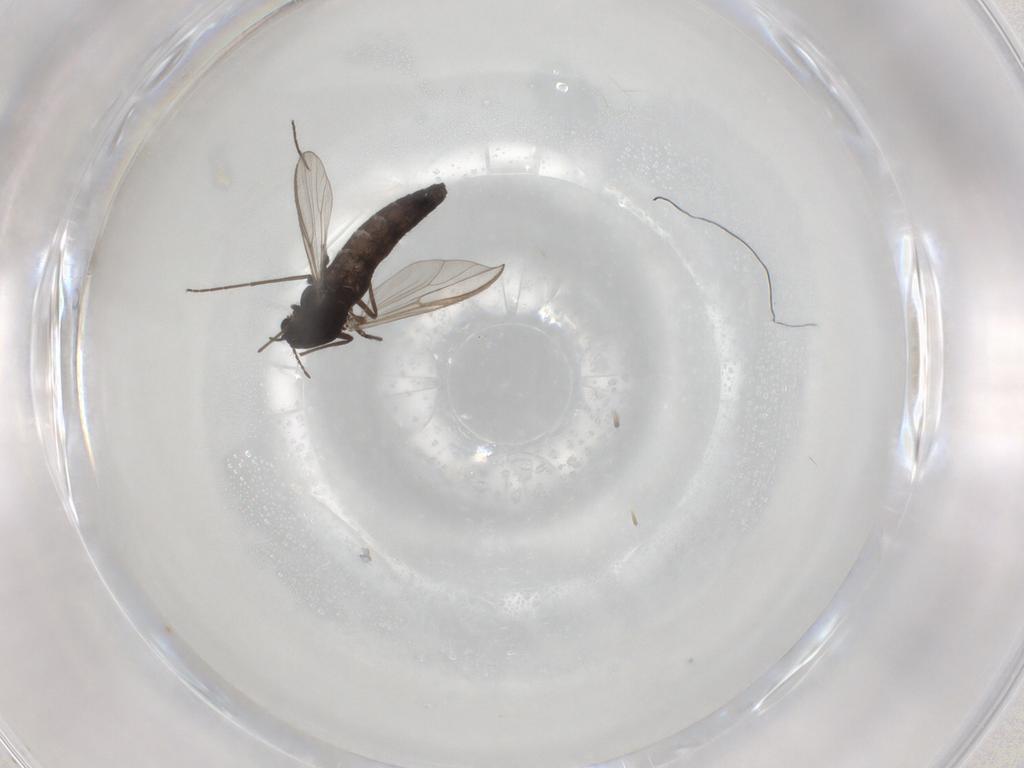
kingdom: Animalia
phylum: Arthropoda
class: Insecta
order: Diptera
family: Chironomidae
